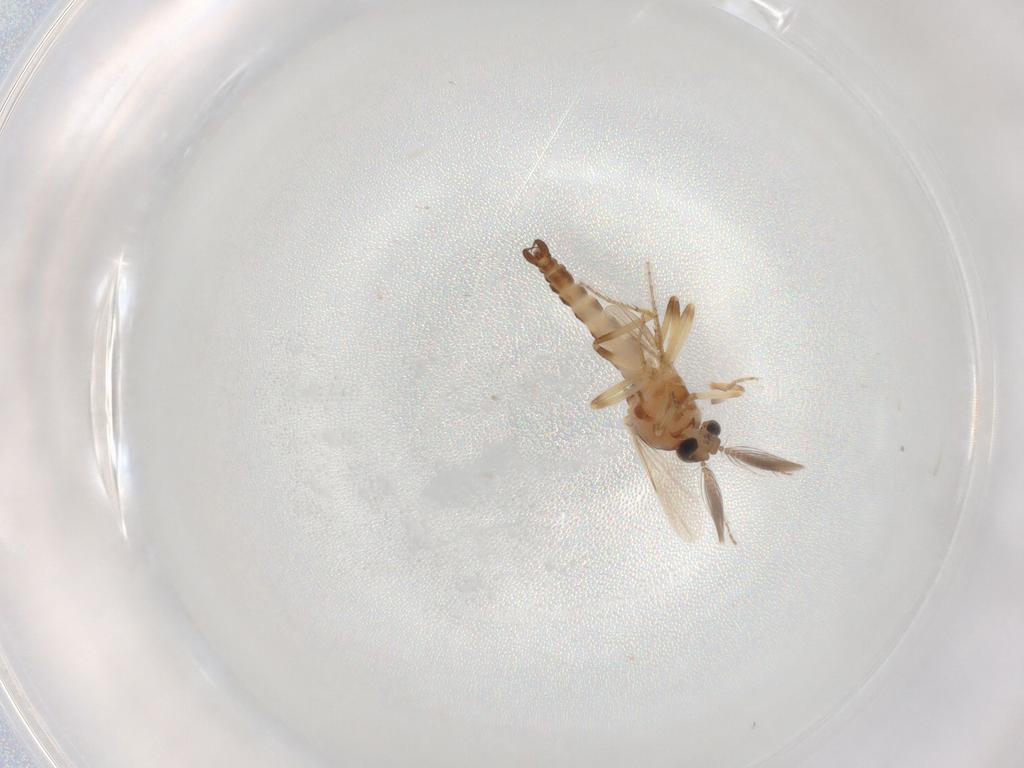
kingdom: Animalia
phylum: Arthropoda
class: Insecta
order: Diptera
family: Ceratopogonidae
